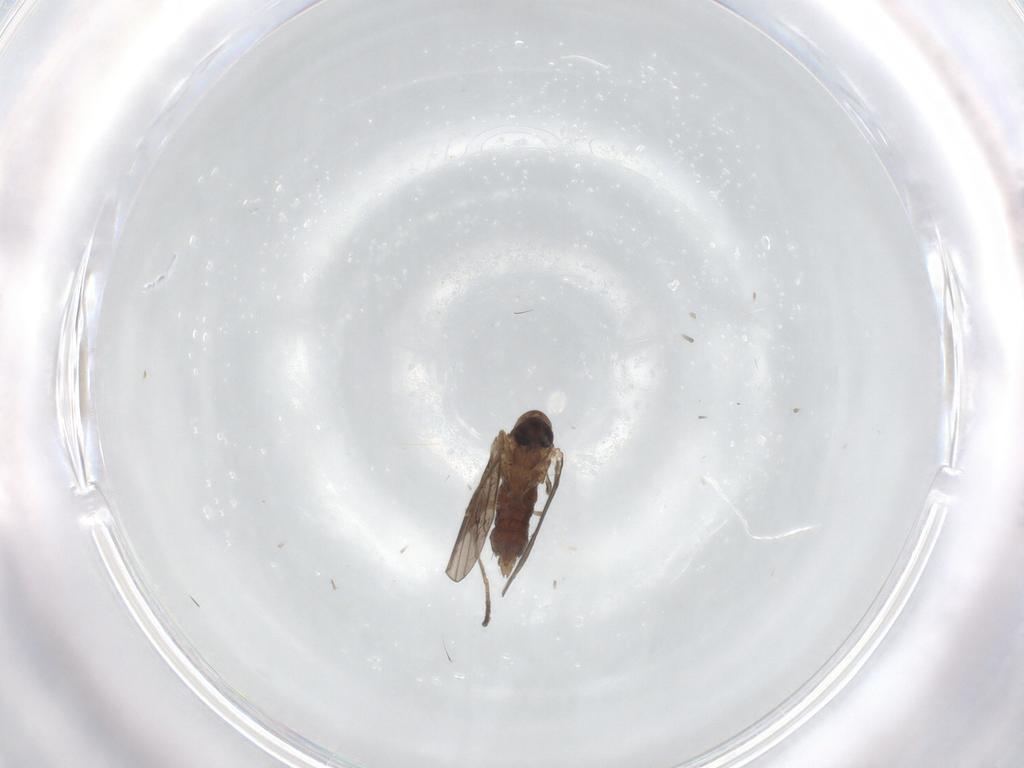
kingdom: Animalia
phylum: Arthropoda
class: Insecta
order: Diptera
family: Psychodidae
